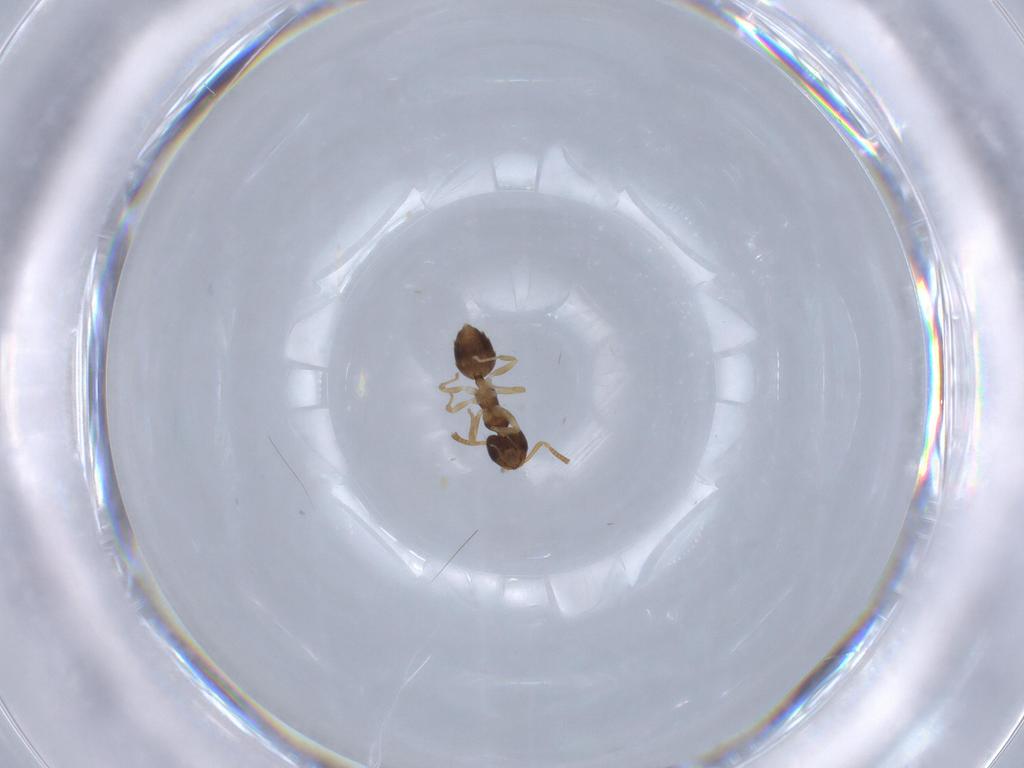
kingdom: Animalia
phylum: Arthropoda
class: Insecta
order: Hymenoptera
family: Formicidae
